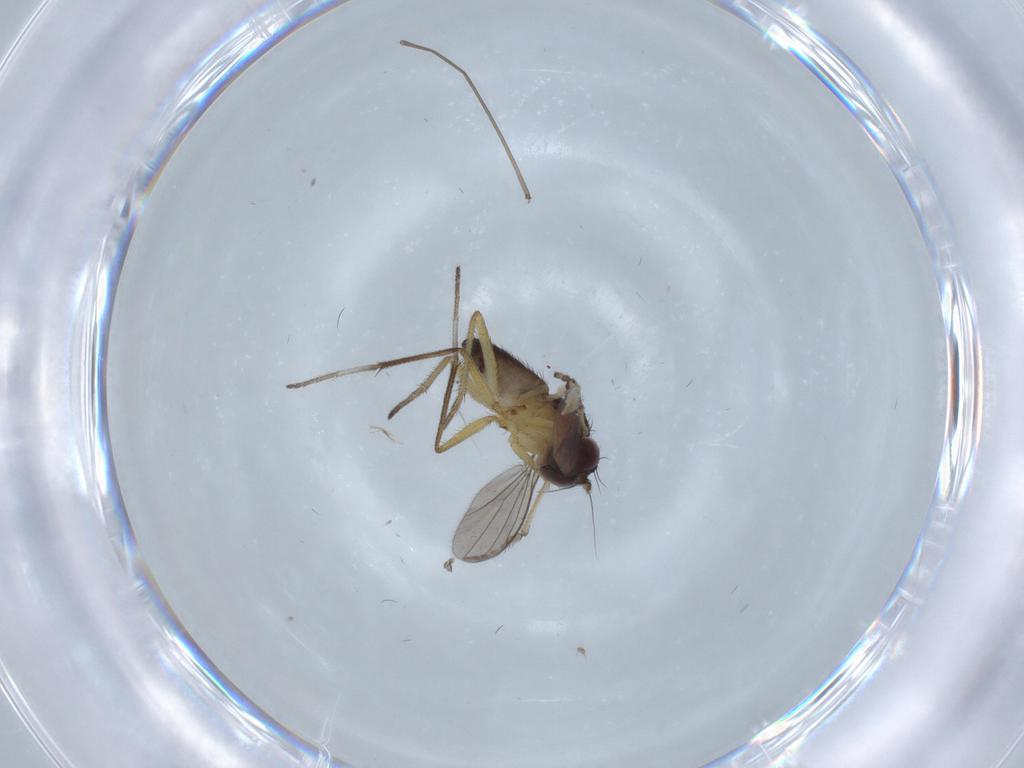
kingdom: Animalia
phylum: Arthropoda
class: Insecta
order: Diptera
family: Dolichopodidae
